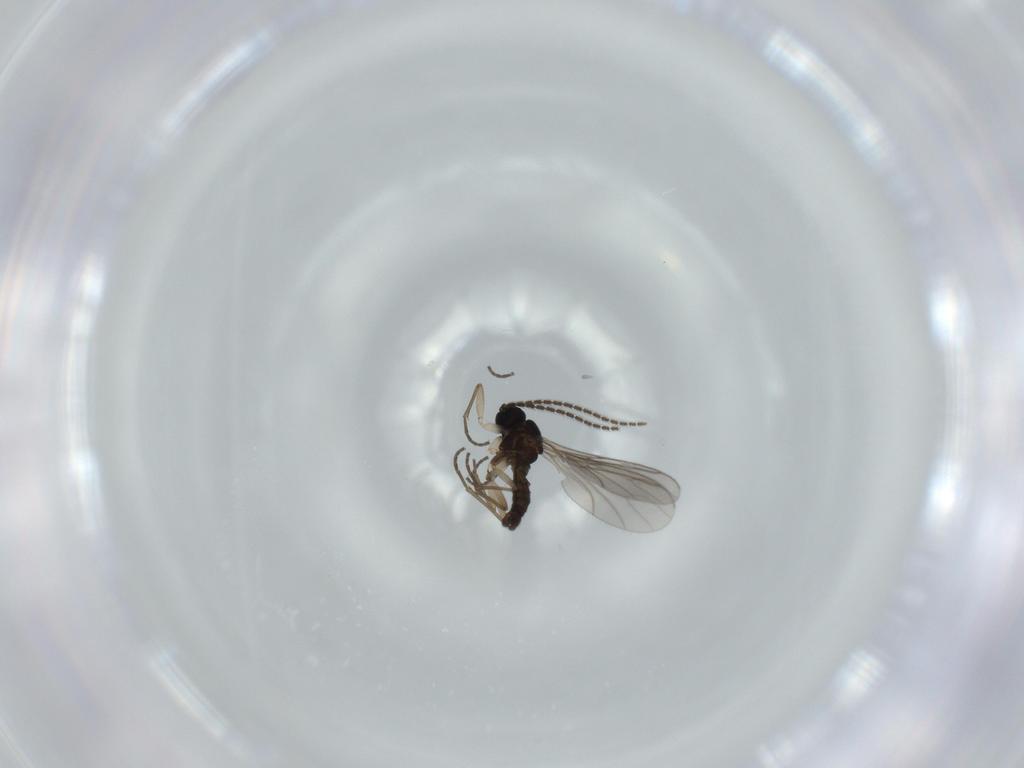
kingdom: Animalia
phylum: Arthropoda
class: Insecta
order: Diptera
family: Sciaridae
